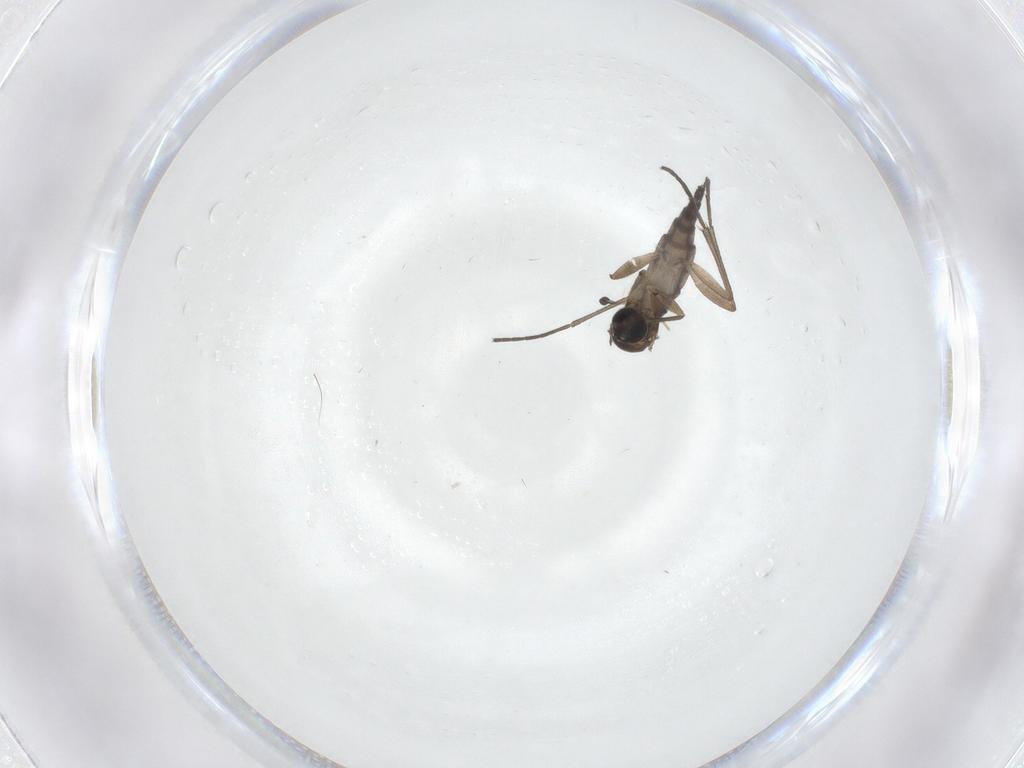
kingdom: Animalia
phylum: Arthropoda
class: Insecta
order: Diptera
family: Sciaridae
